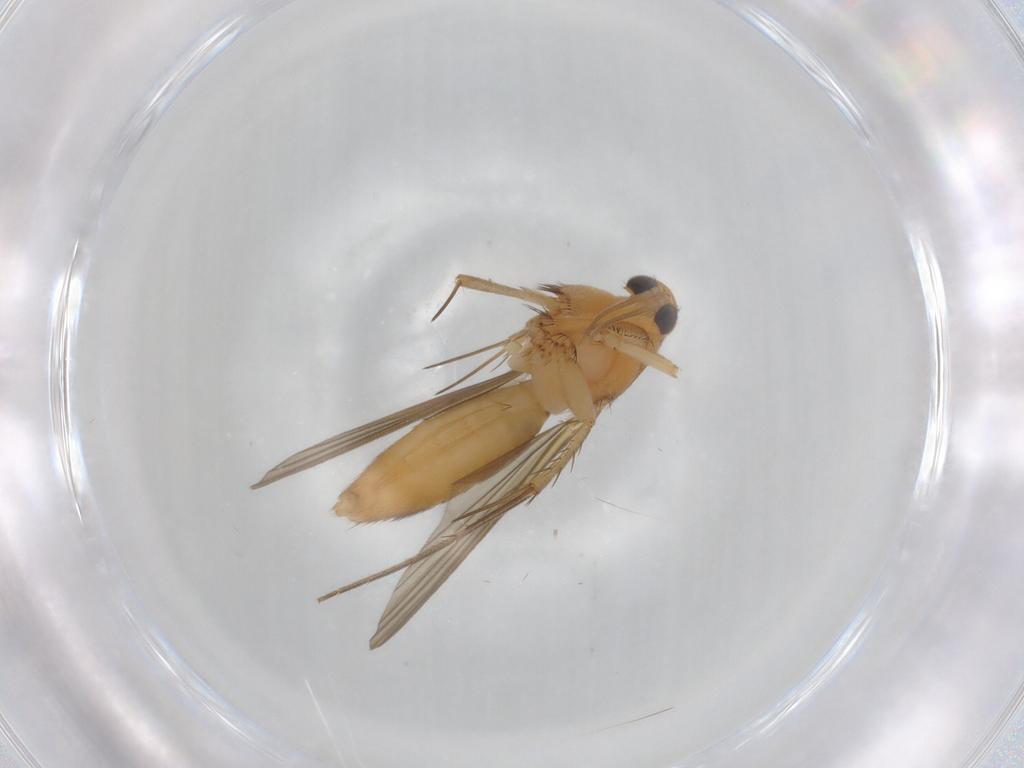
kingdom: Animalia
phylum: Arthropoda
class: Insecta
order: Diptera
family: Mycetophilidae
